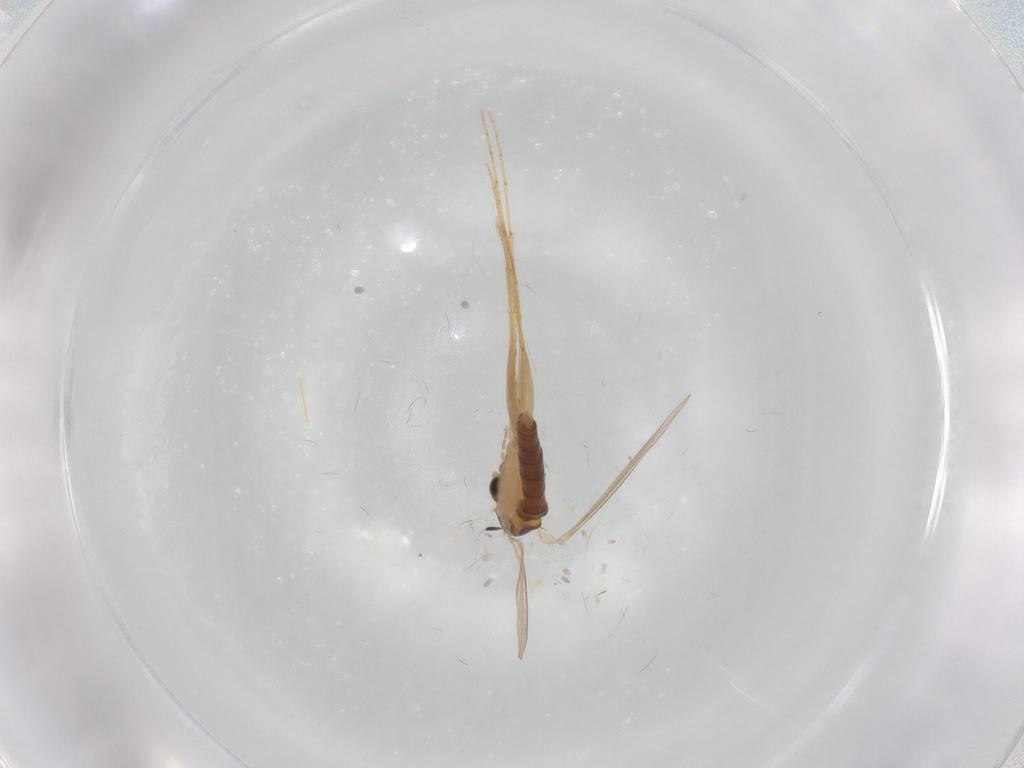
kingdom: Animalia
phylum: Arthropoda
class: Insecta
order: Diptera
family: Psychodidae
